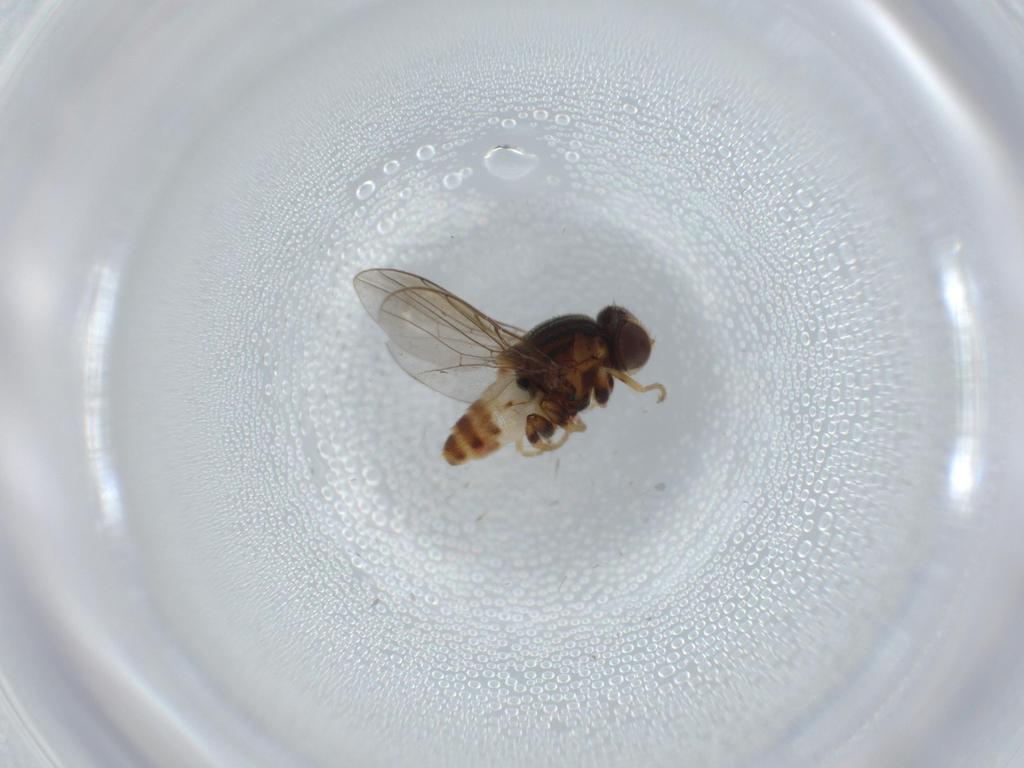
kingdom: Animalia
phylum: Arthropoda
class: Insecta
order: Diptera
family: Chloropidae
